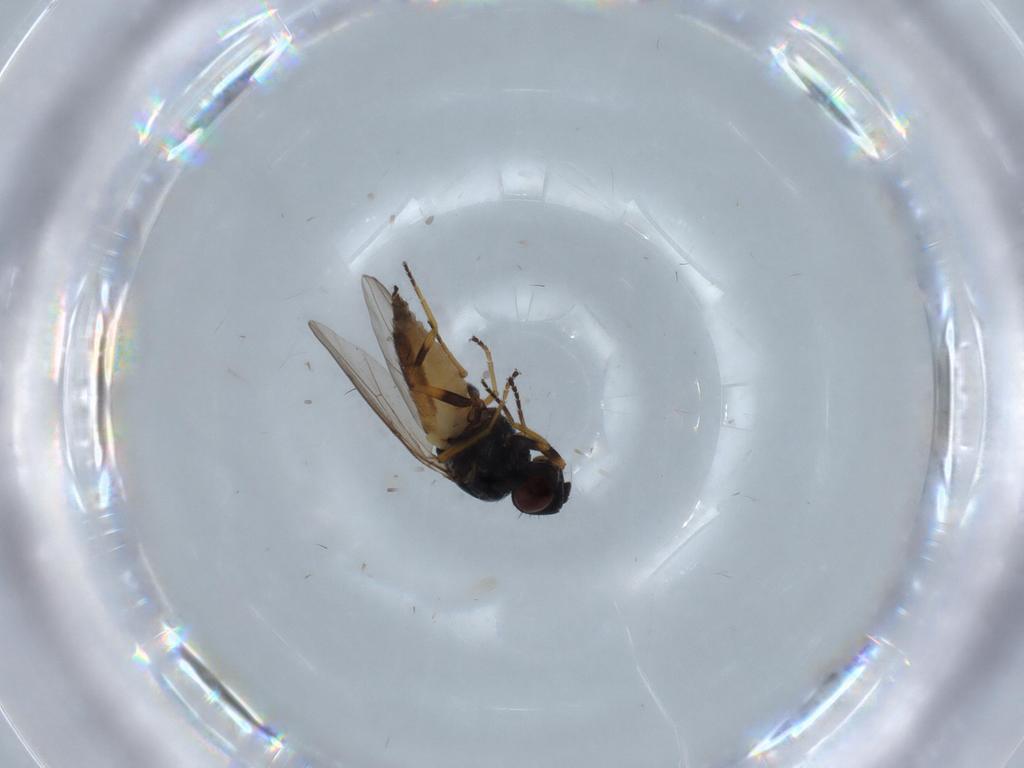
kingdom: Animalia
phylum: Arthropoda
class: Insecta
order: Diptera
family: Chloropidae
